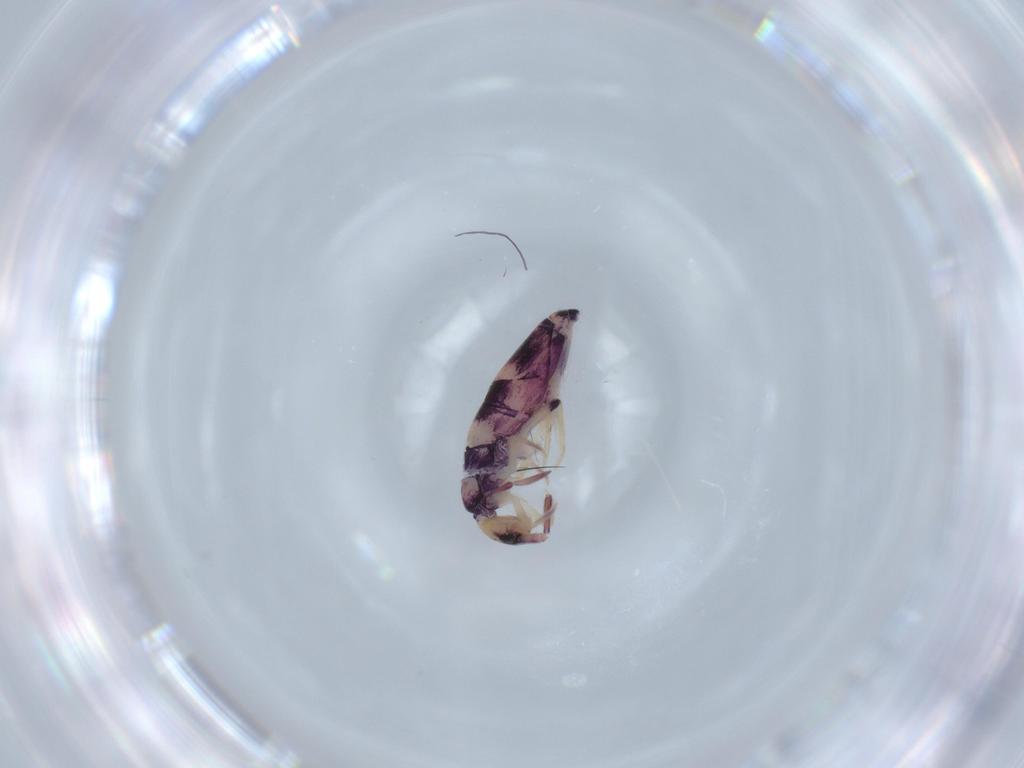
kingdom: Animalia
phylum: Arthropoda
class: Collembola
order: Entomobryomorpha
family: Entomobryidae
